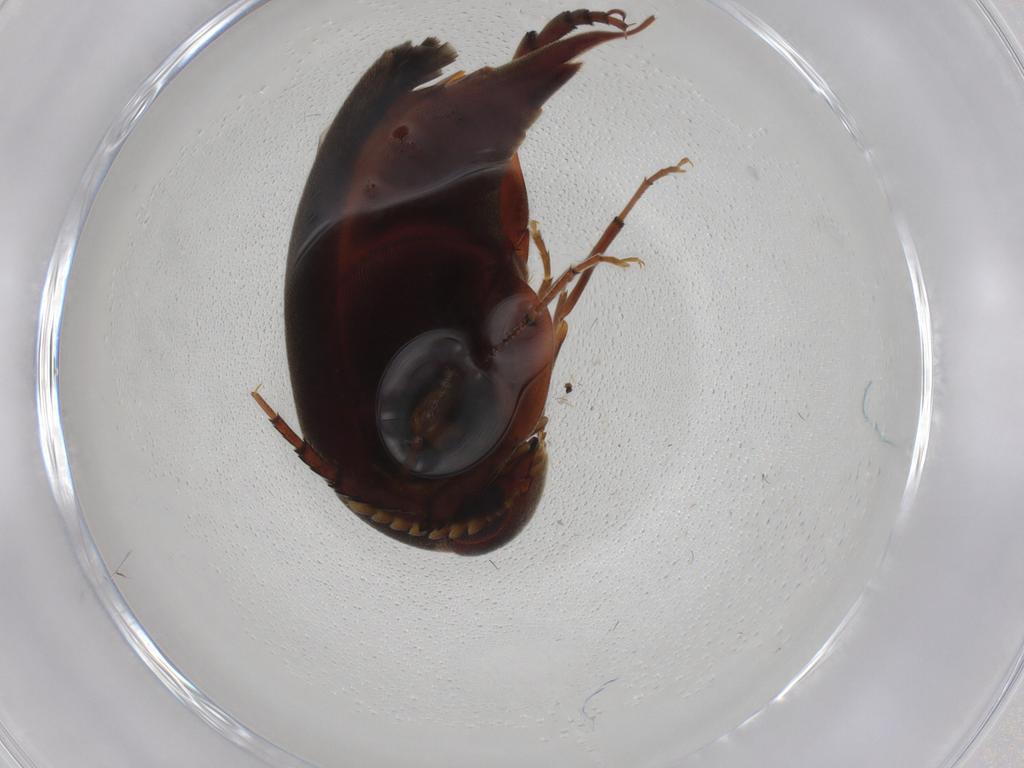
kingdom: Animalia
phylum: Arthropoda
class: Insecta
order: Coleoptera
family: Mordellidae
